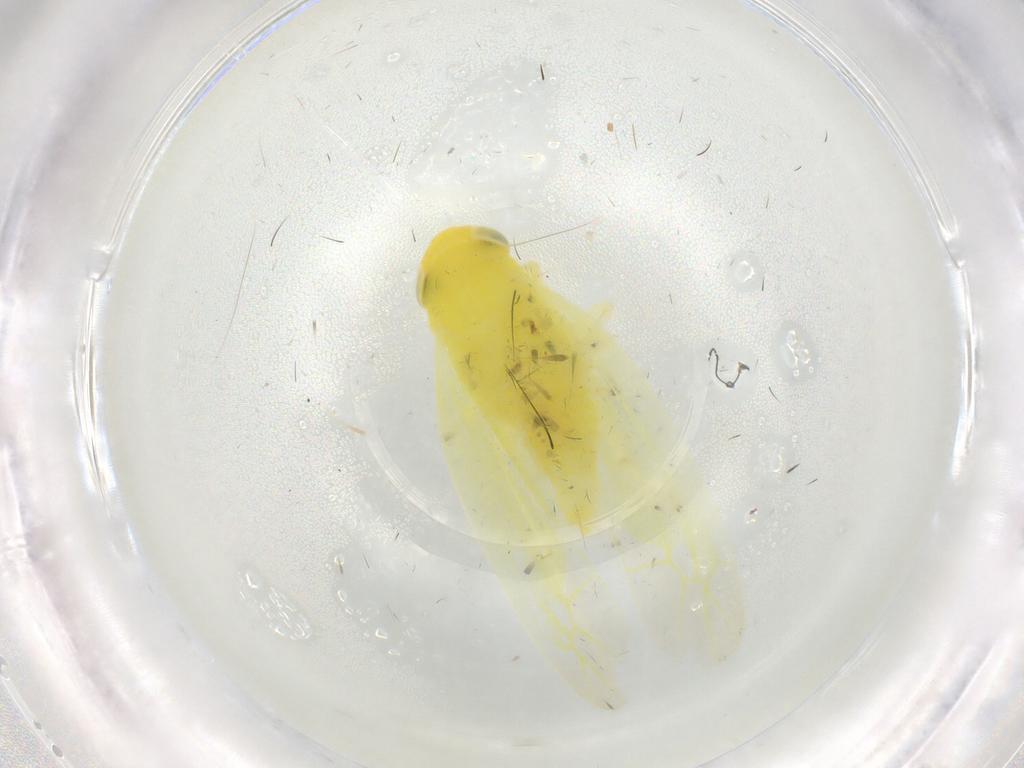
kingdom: Animalia
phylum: Arthropoda
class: Insecta
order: Hemiptera
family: Cicadellidae
